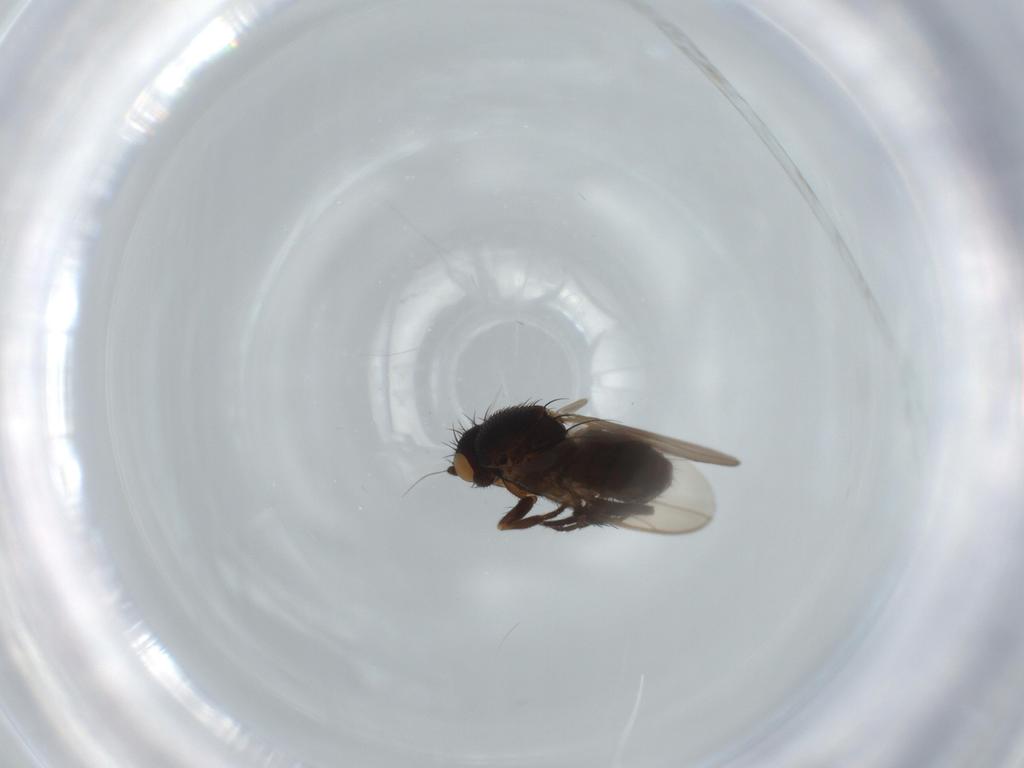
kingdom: Animalia
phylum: Arthropoda
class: Insecta
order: Diptera
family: Sphaeroceridae
